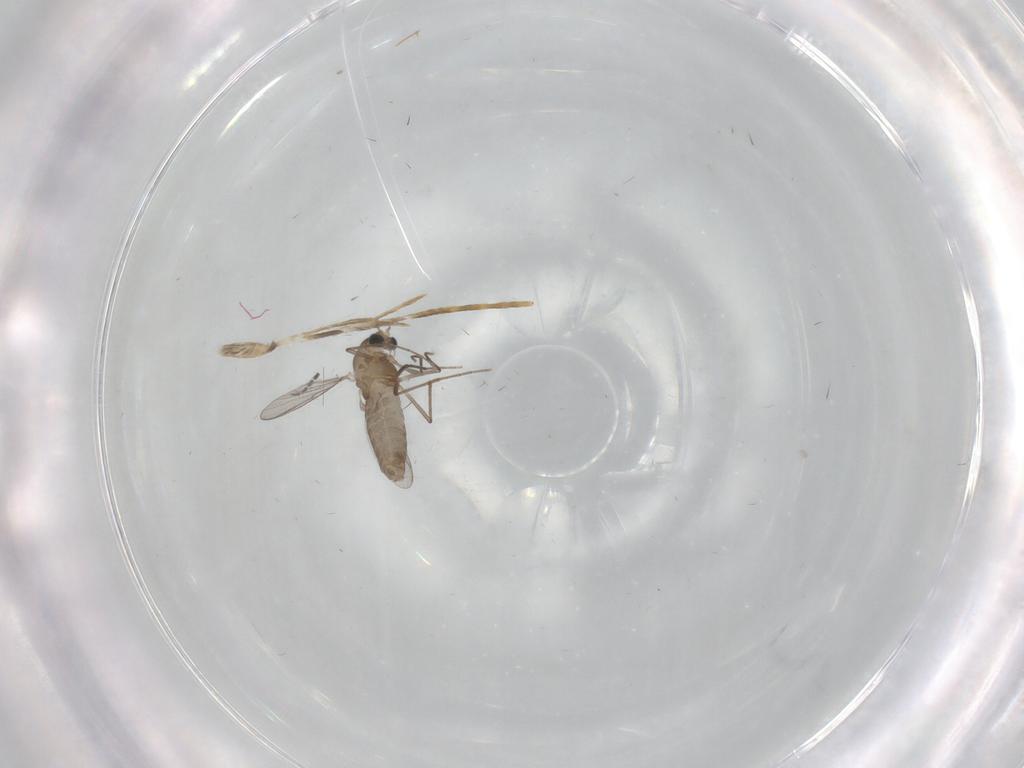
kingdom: Animalia
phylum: Arthropoda
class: Insecta
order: Diptera
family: Chironomidae
